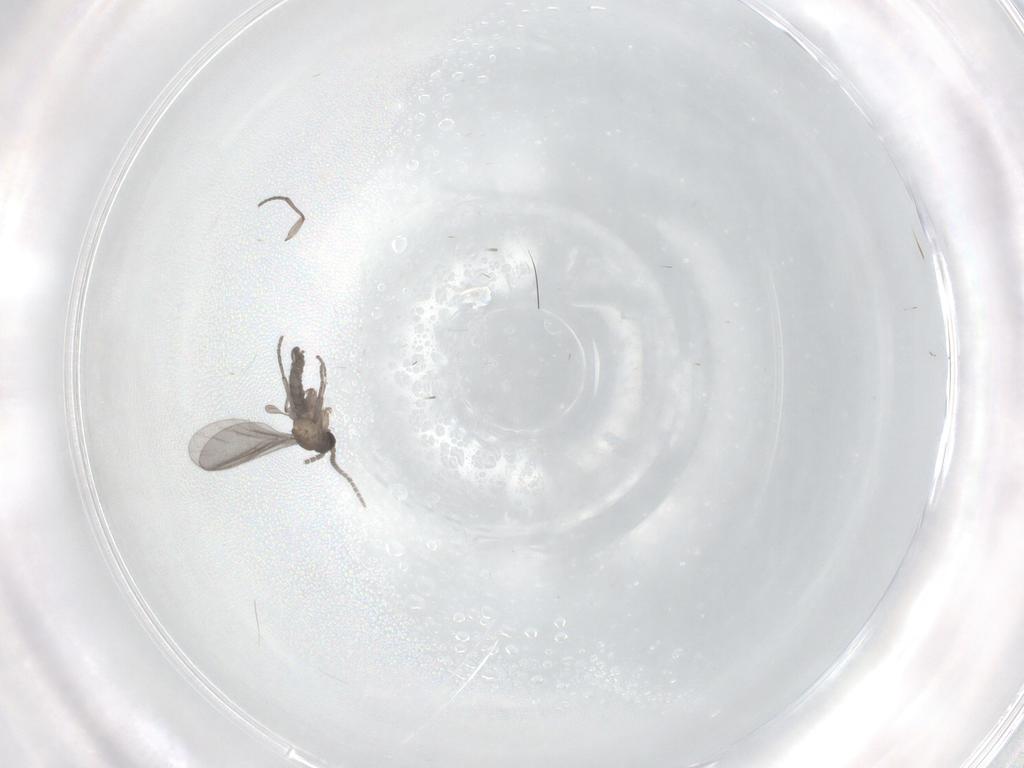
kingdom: Animalia
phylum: Arthropoda
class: Insecta
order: Diptera
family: Sciaridae
